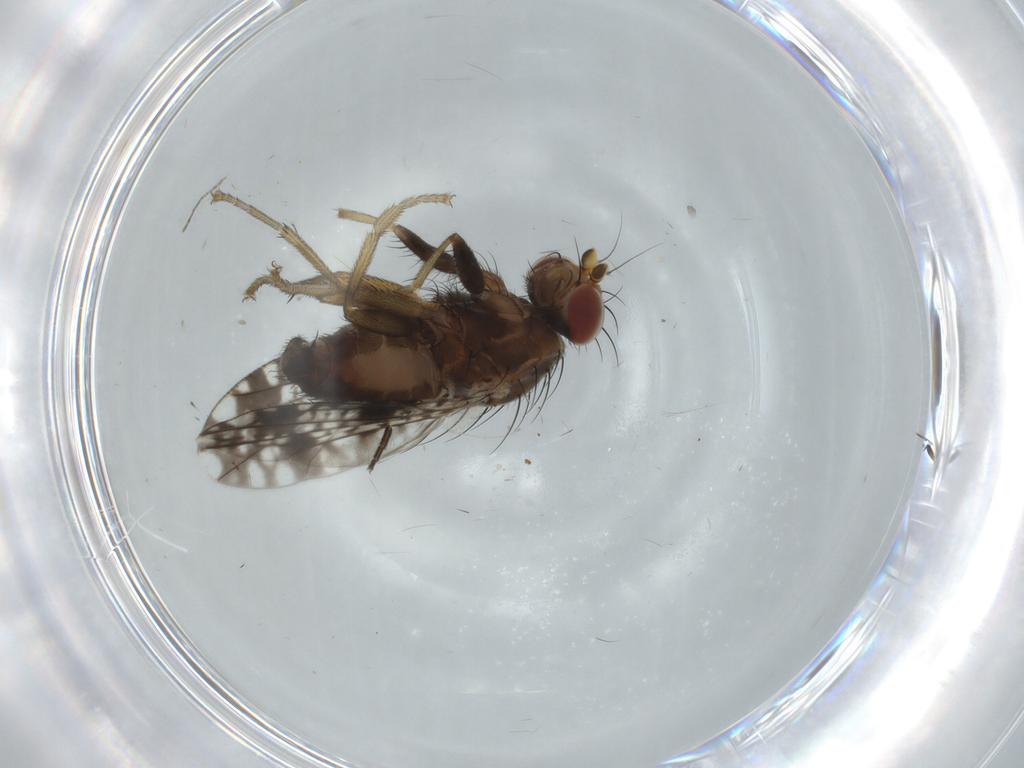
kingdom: Animalia
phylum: Arthropoda
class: Insecta
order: Diptera
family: Tephritidae
